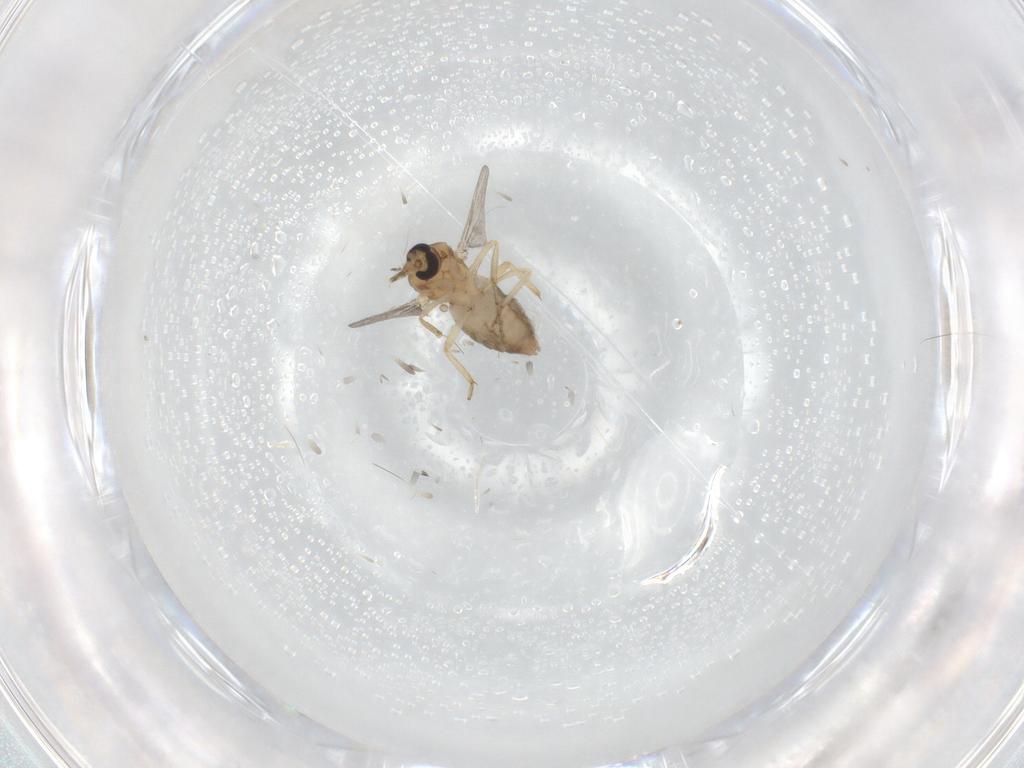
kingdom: Animalia
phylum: Arthropoda
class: Insecta
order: Diptera
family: Ceratopogonidae
